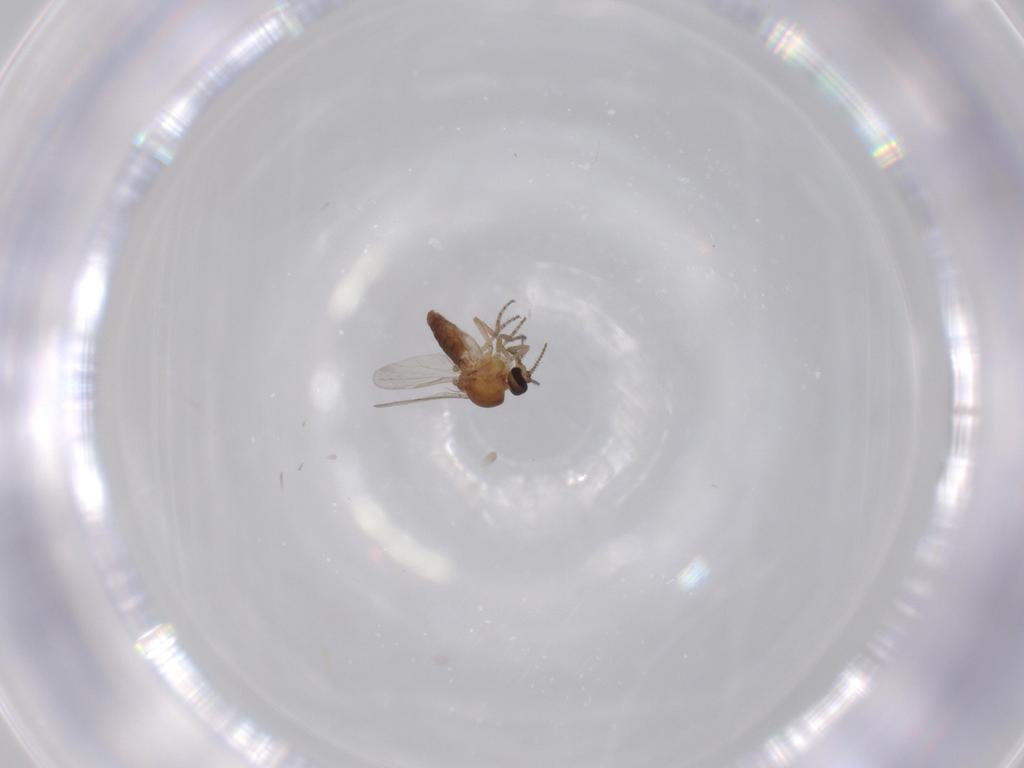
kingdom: Animalia
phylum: Arthropoda
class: Insecta
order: Diptera
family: Ceratopogonidae
